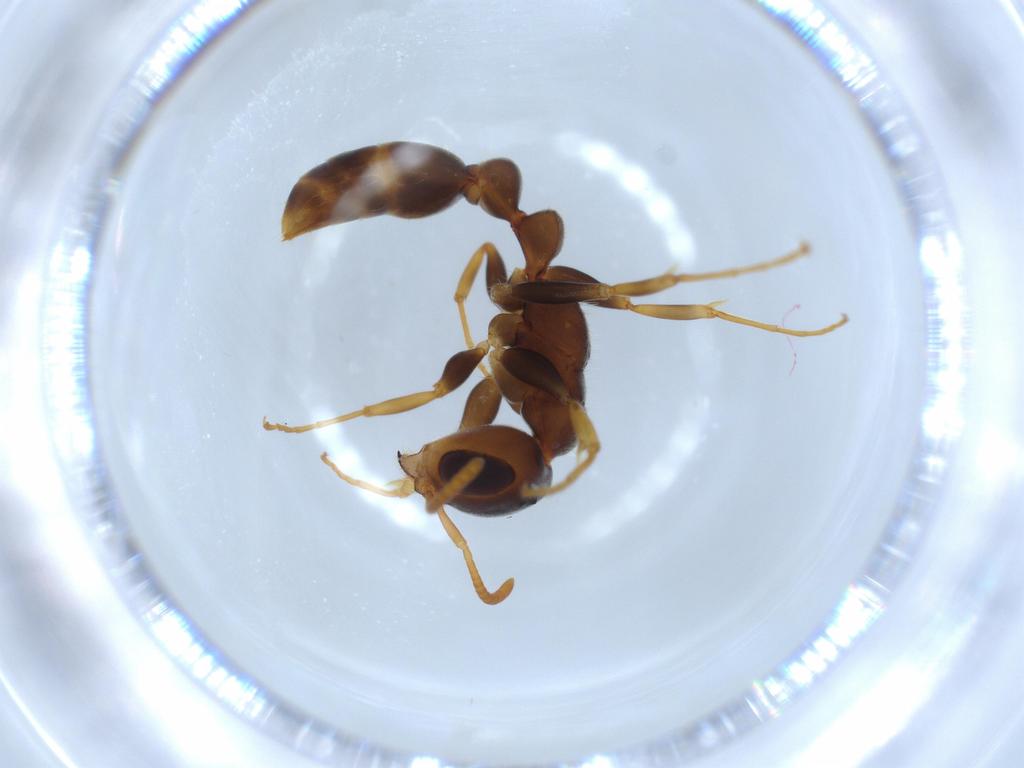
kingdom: Animalia
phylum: Arthropoda
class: Insecta
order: Hymenoptera
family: Formicidae
